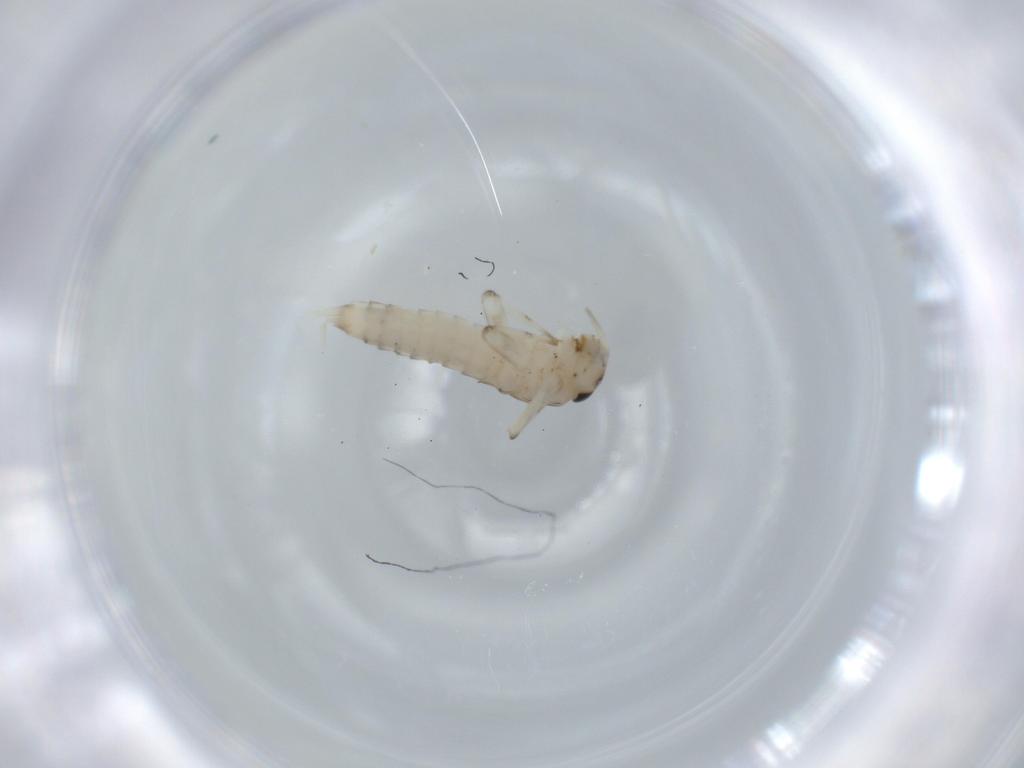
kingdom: Animalia
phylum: Arthropoda
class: Insecta
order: Ephemeroptera
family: Baetidae
